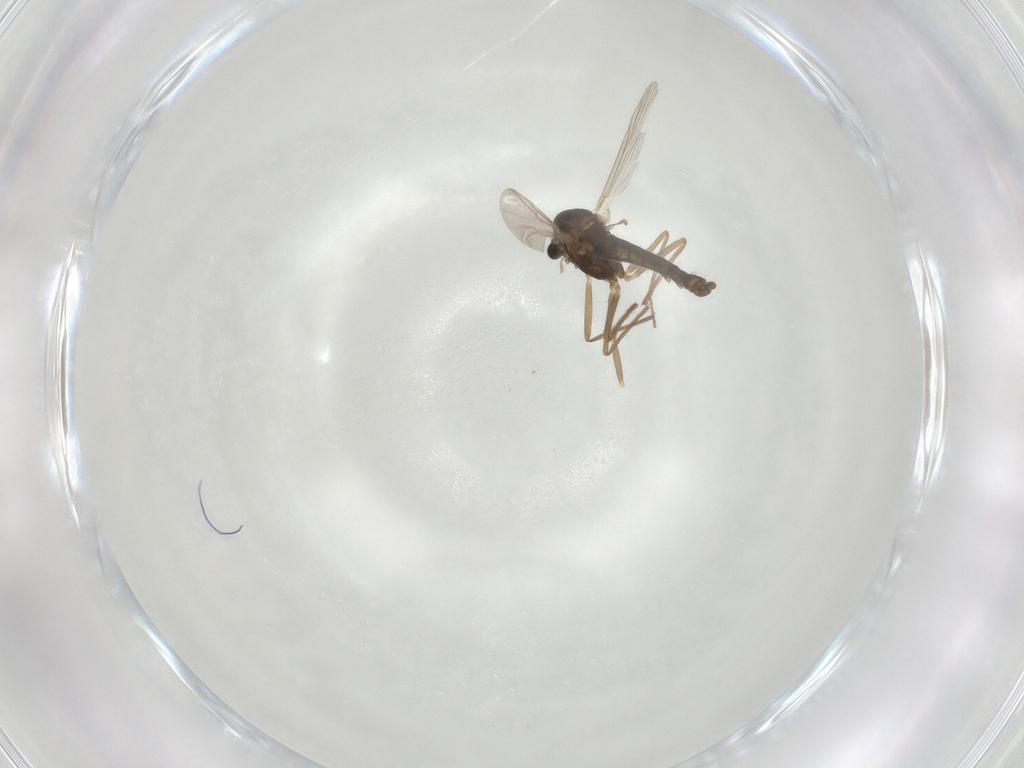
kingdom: Animalia
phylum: Arthropoda
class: Insecta
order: Diptera
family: Chironomidae
